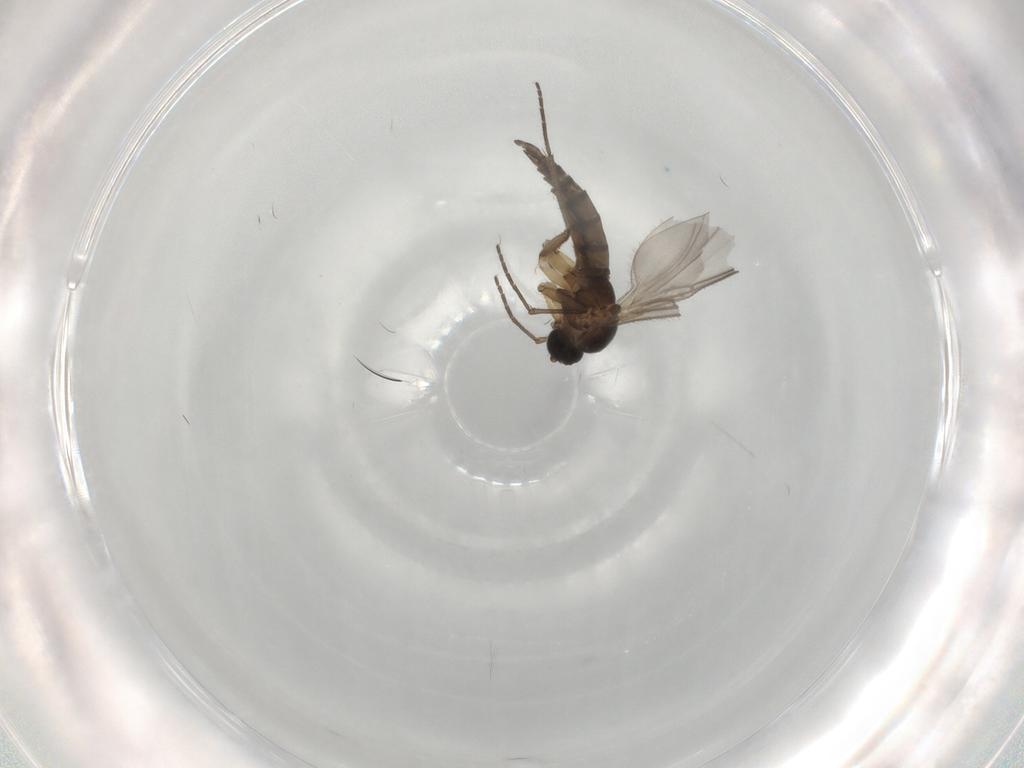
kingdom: Animalia
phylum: Arthropoda
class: Insecta
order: Diptera
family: Sciaridae
